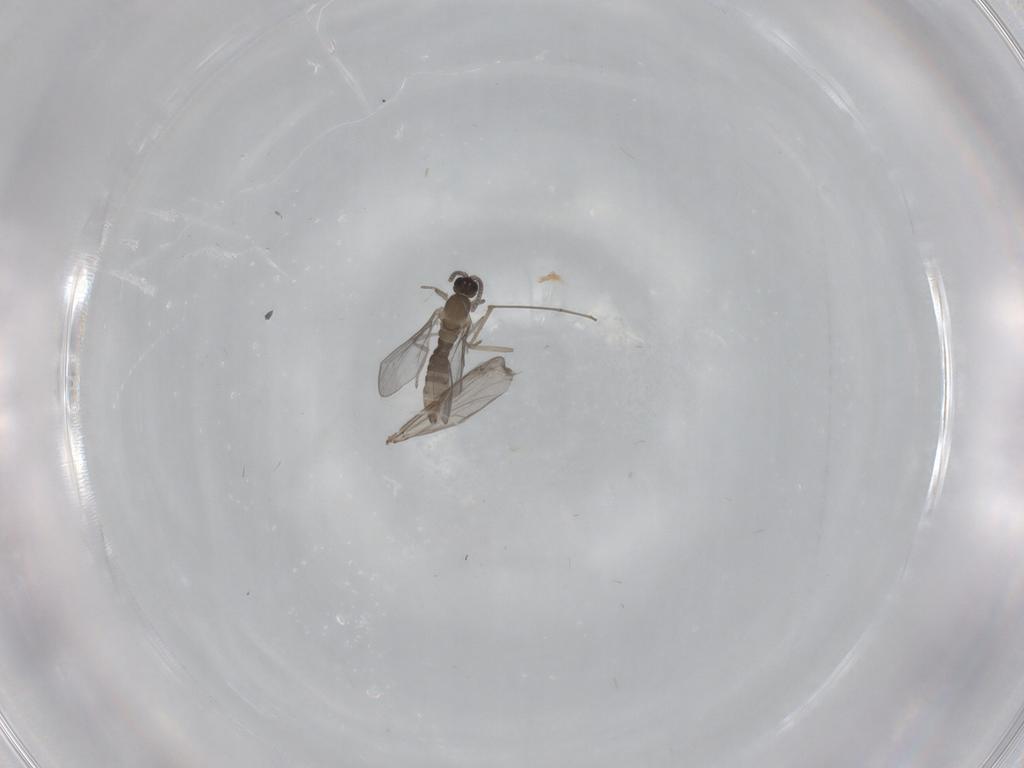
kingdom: Animalia
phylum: Arthropoda
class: Insecta
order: Diptera
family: Cecidomyiidae
